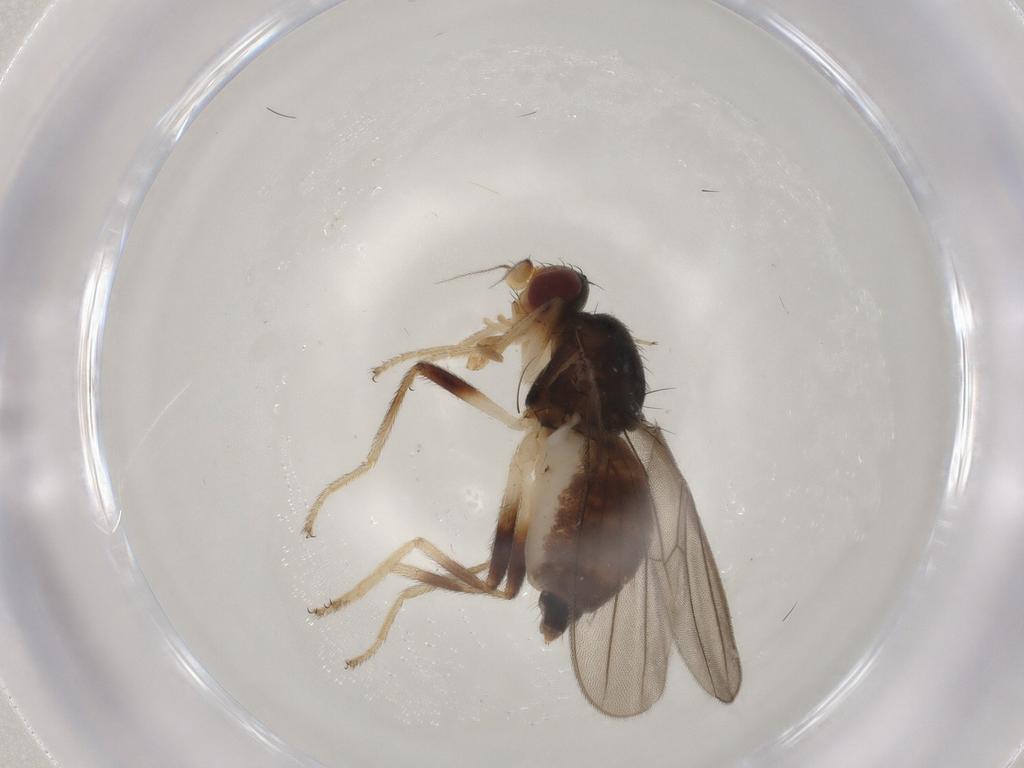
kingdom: Animalia
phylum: Arthropoda
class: Insecta
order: Diptera
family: Chloropidae
